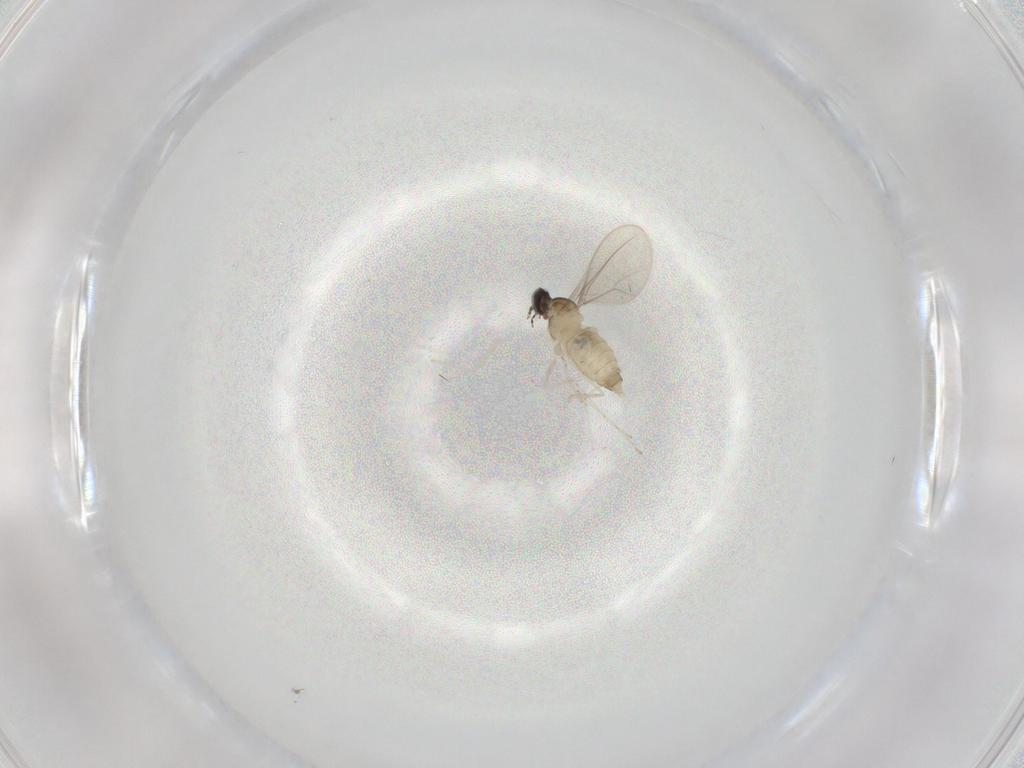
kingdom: Animalia
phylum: Arthropoda
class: Insecta
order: Diptera
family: Cecidomyiidae
